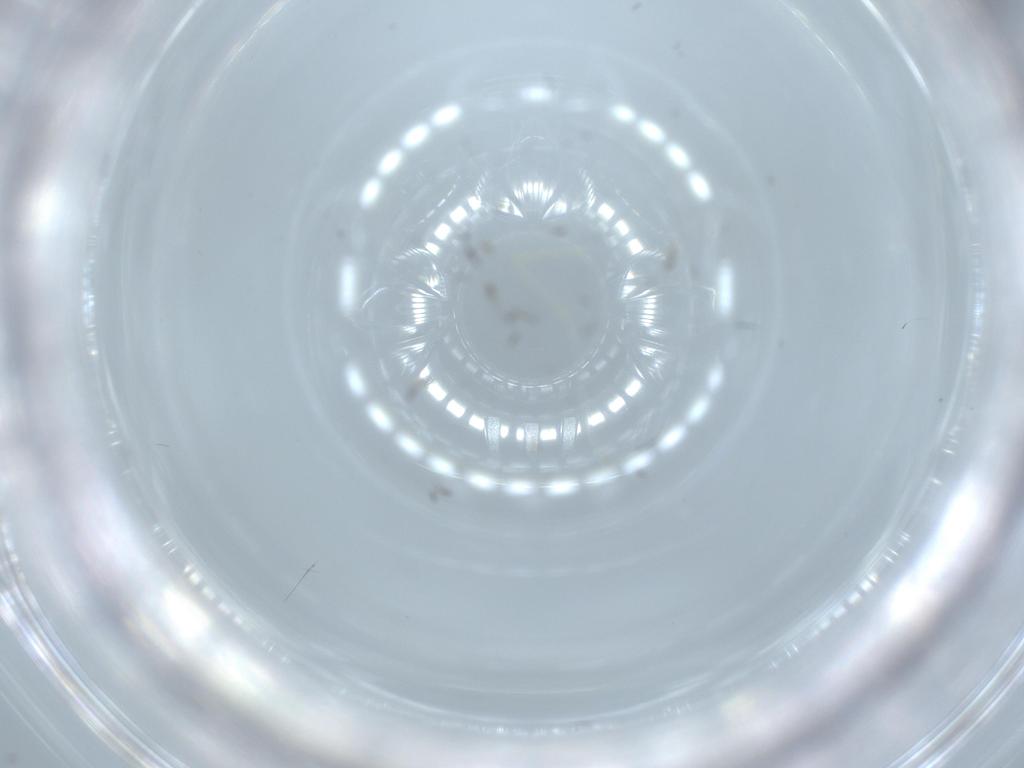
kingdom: Animalia
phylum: Arthropoda
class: Insecta
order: Diptera
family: Cecidomyiidae
